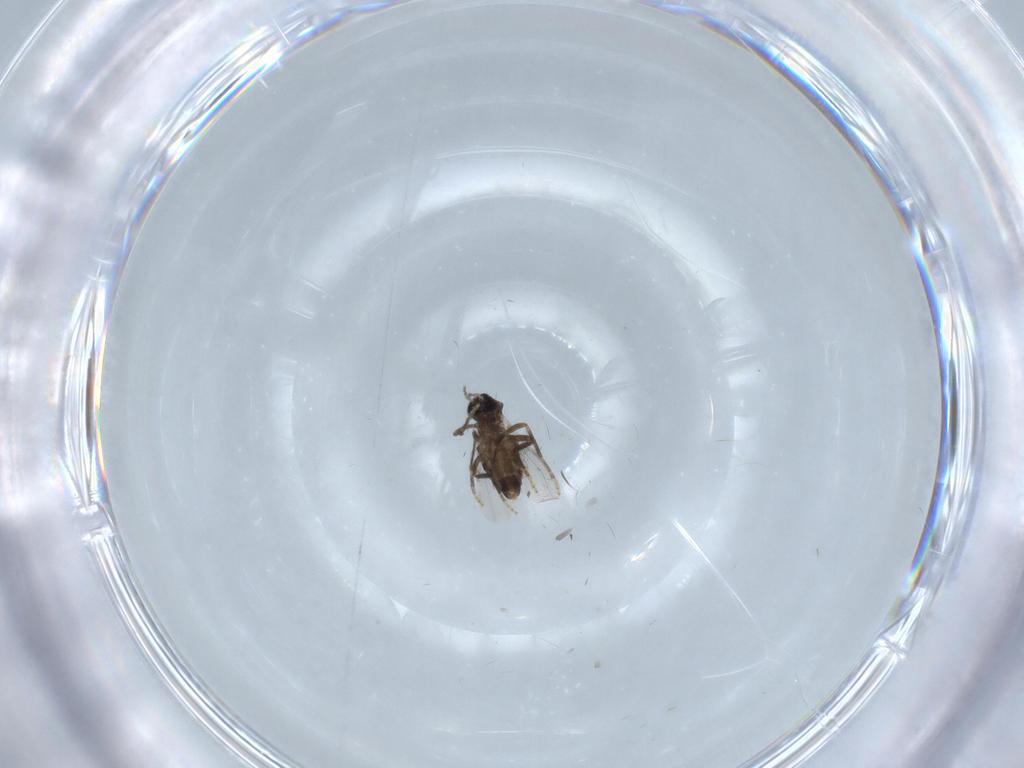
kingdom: Animalia
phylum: Arthropoda
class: Insecta
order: Diptera
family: Ceratopogonidae
